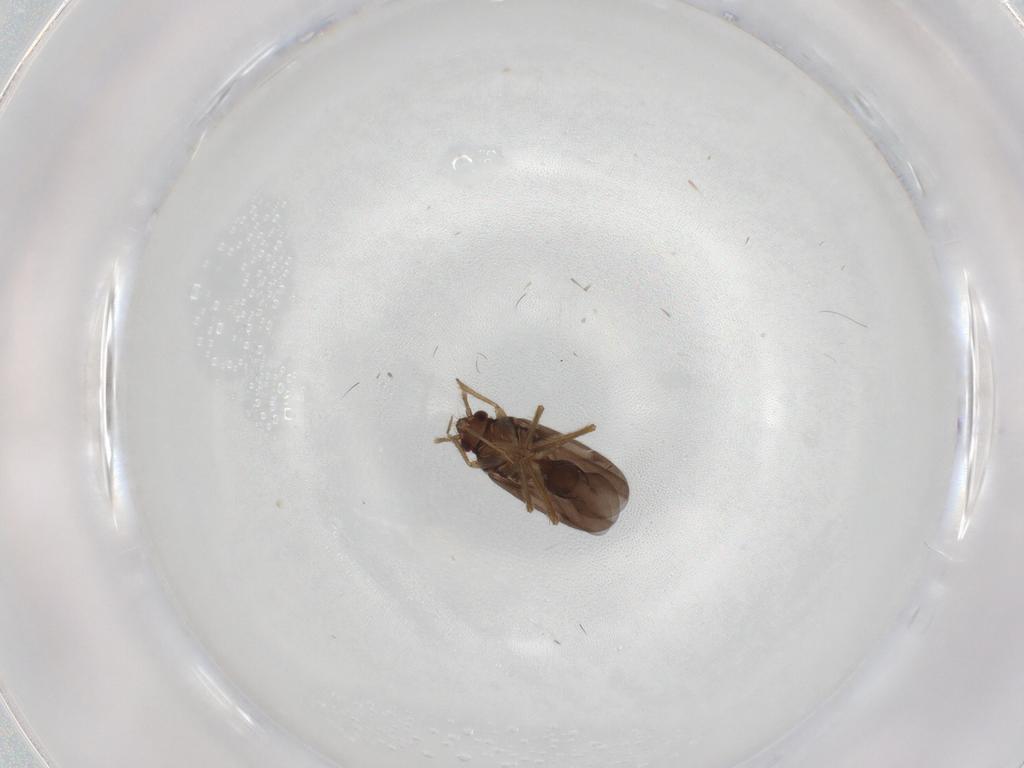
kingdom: Animalia
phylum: Arthropoda
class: Insecta
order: Hemiptera
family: Ceratocombidae
